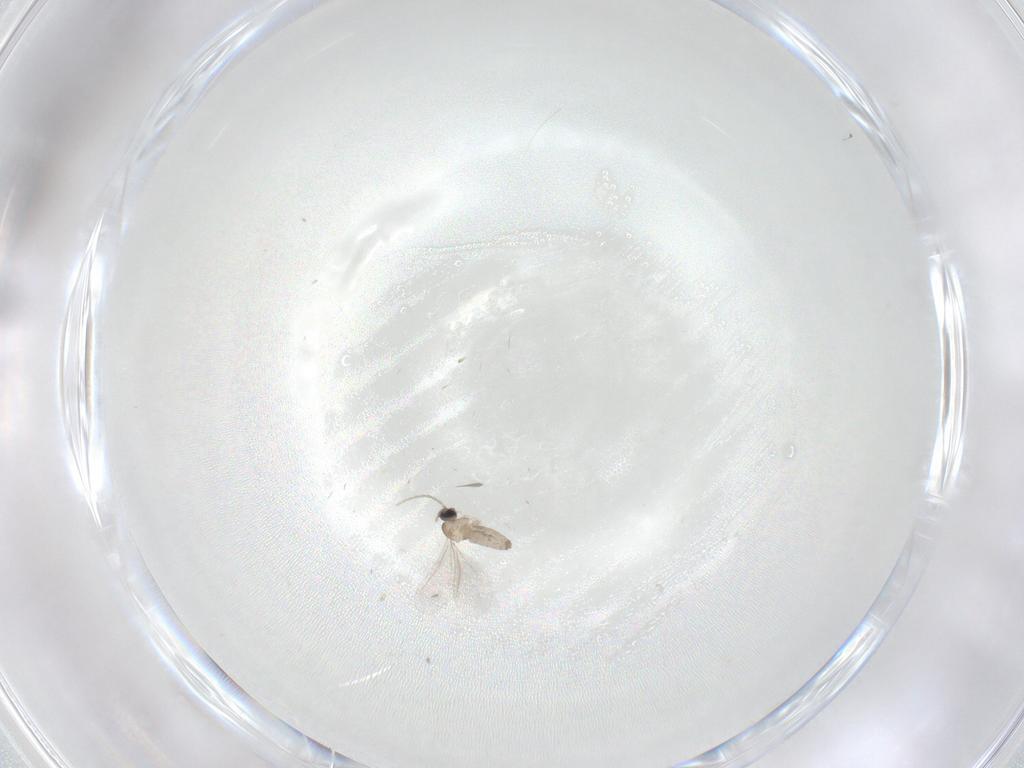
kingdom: Animalia
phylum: Arthropoda
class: Insecta
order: Diptera
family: Cecidomyiidae
